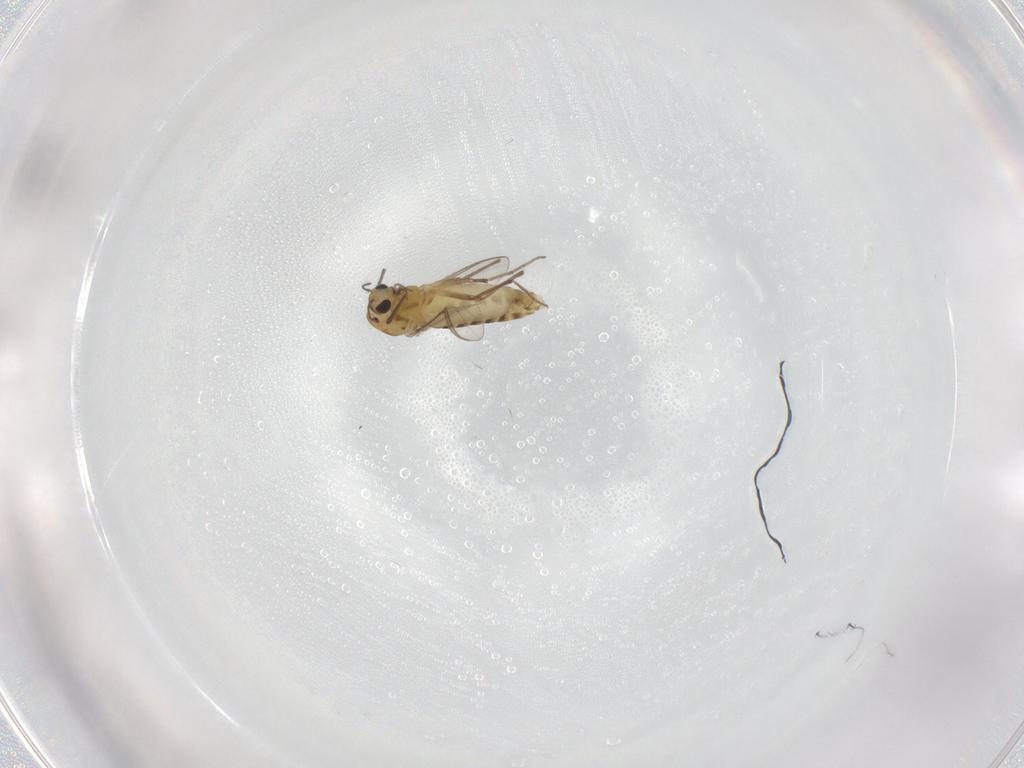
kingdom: Animalia
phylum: Arthropoda
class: Insecta
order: Diptera
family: Chironomidae
